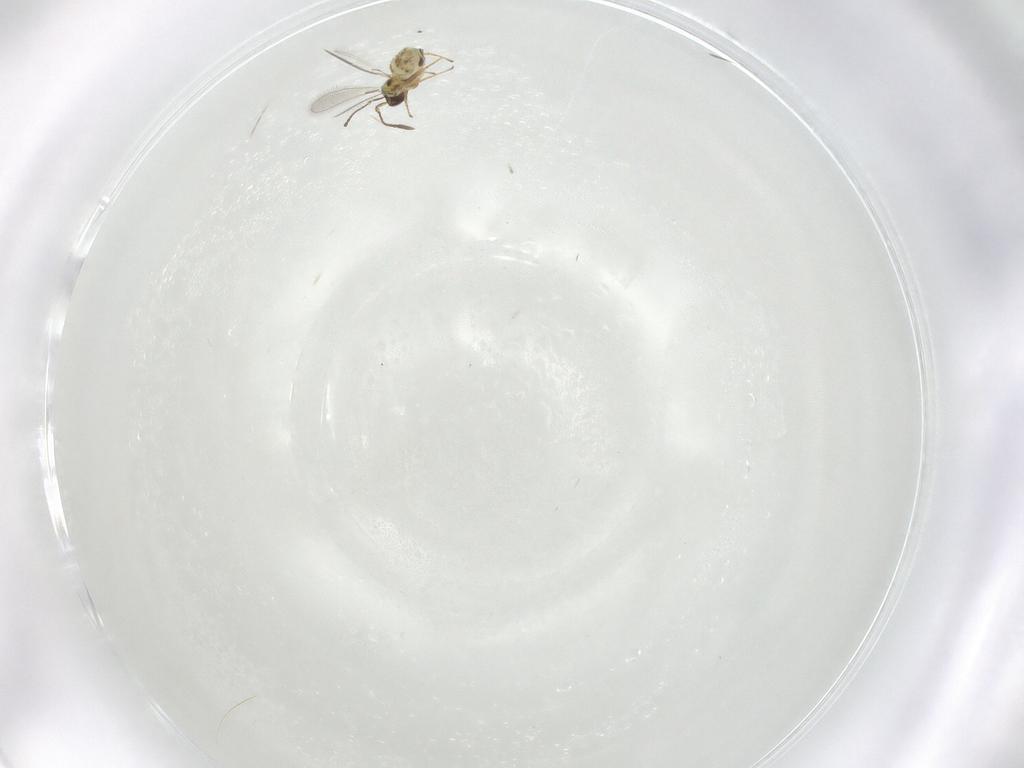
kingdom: Animalia
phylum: Arthropoda
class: Insecta
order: Hymenoptera
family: Mymaridae
